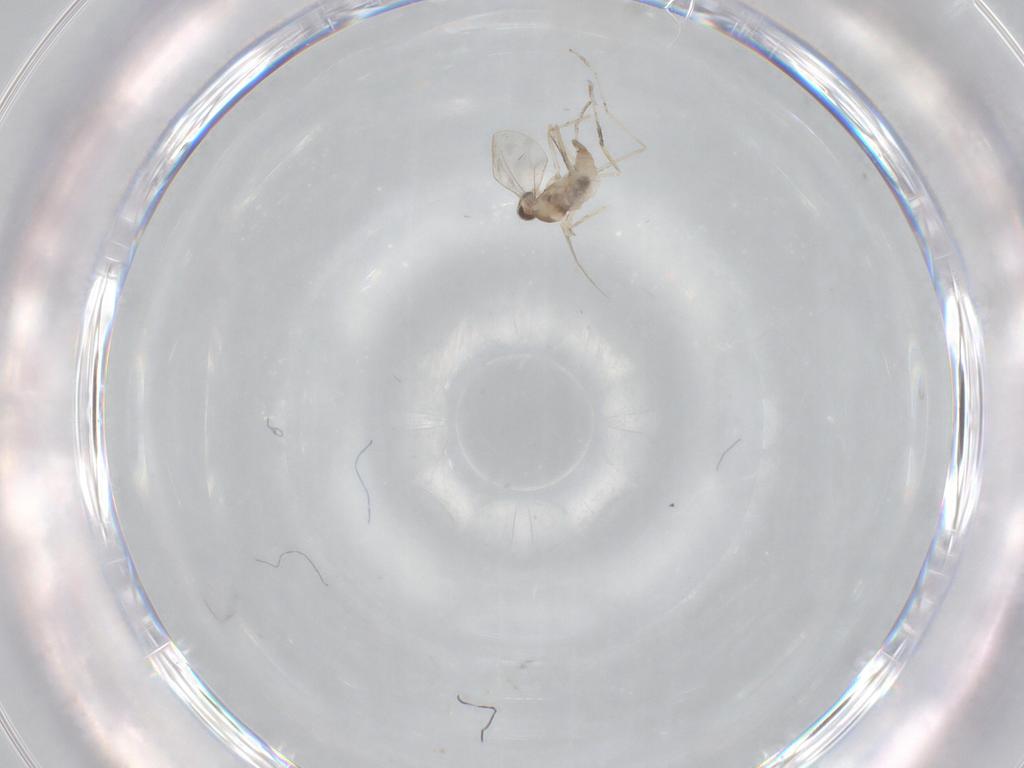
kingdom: Animalia
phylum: Arthropoda
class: Insecta
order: Diptera
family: Cecidomyiidae
